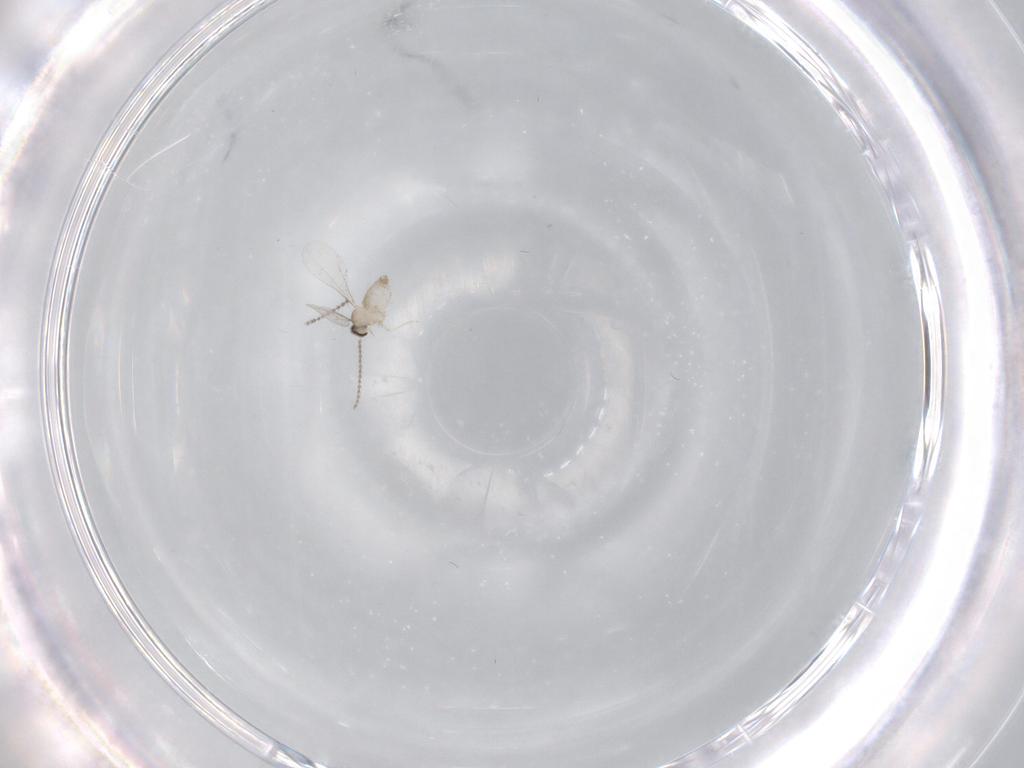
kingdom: Animalia
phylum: Arthropoda
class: Insecta
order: Diptera
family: Cecidomyiidae
